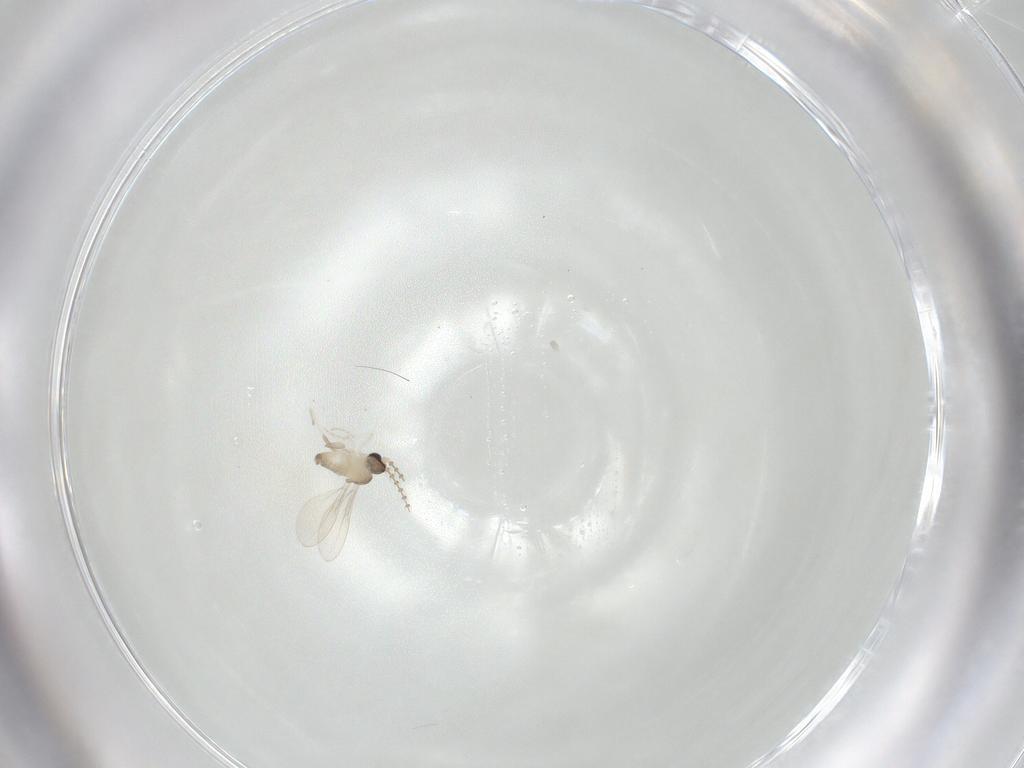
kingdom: Animalia
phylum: Arthropoda
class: Insecta
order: Diptera
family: Cecidomyiidae
